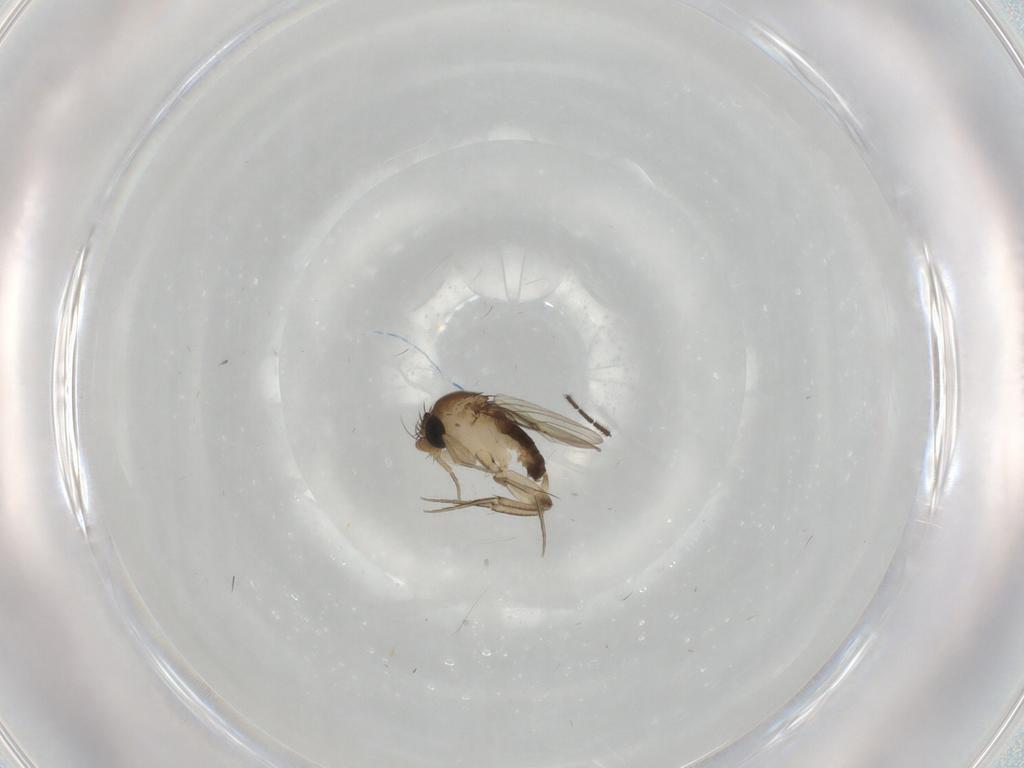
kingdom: Animalia
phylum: Arthropoda
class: Insecta
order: Diptera
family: Phoridae
